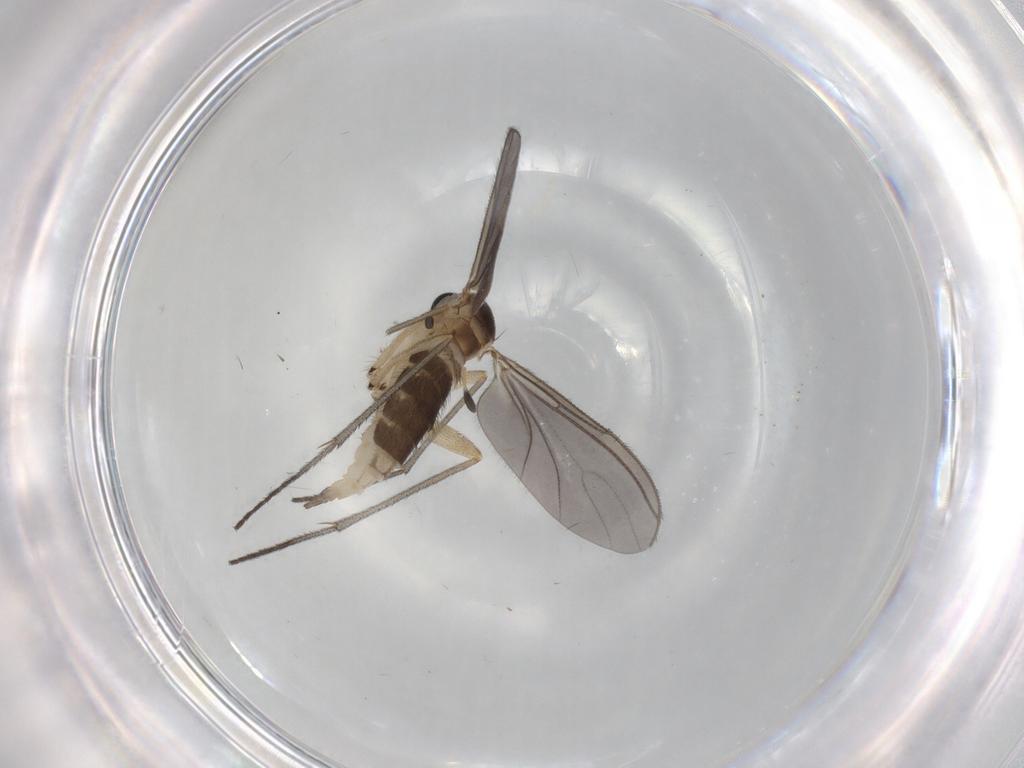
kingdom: Animalia
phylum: Arthropoda
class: Insecta
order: Diptera
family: Sciaridae
